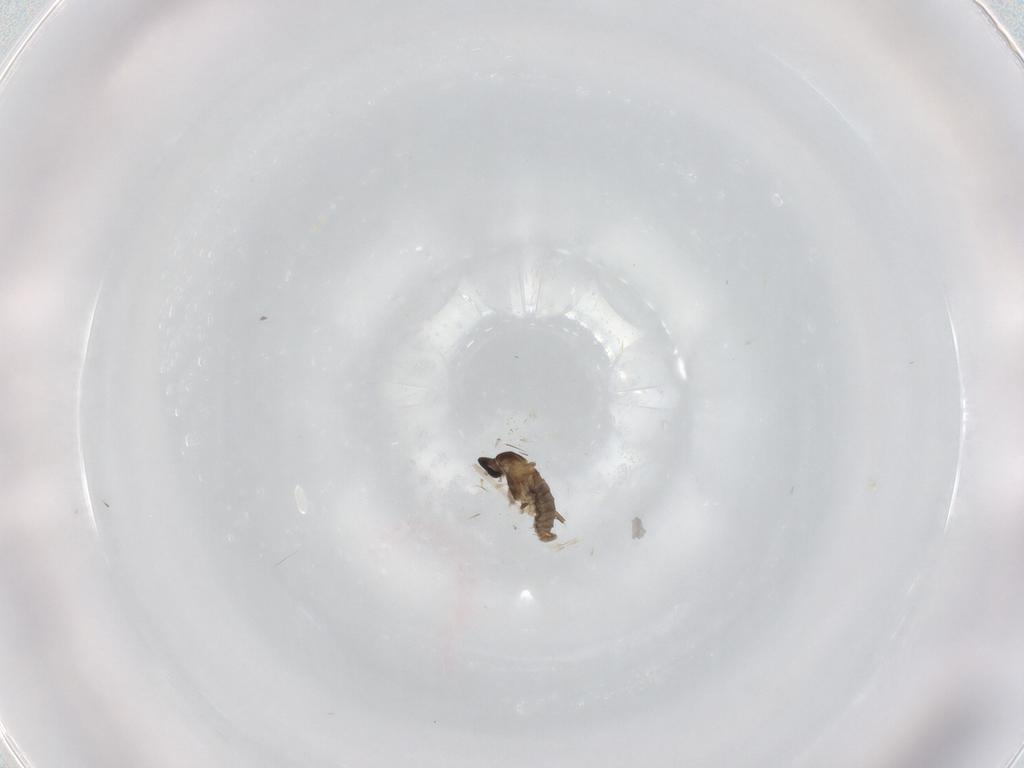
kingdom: Animalia
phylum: Arthropoda
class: Insecta
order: Diptera
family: Cecidomyiidae
